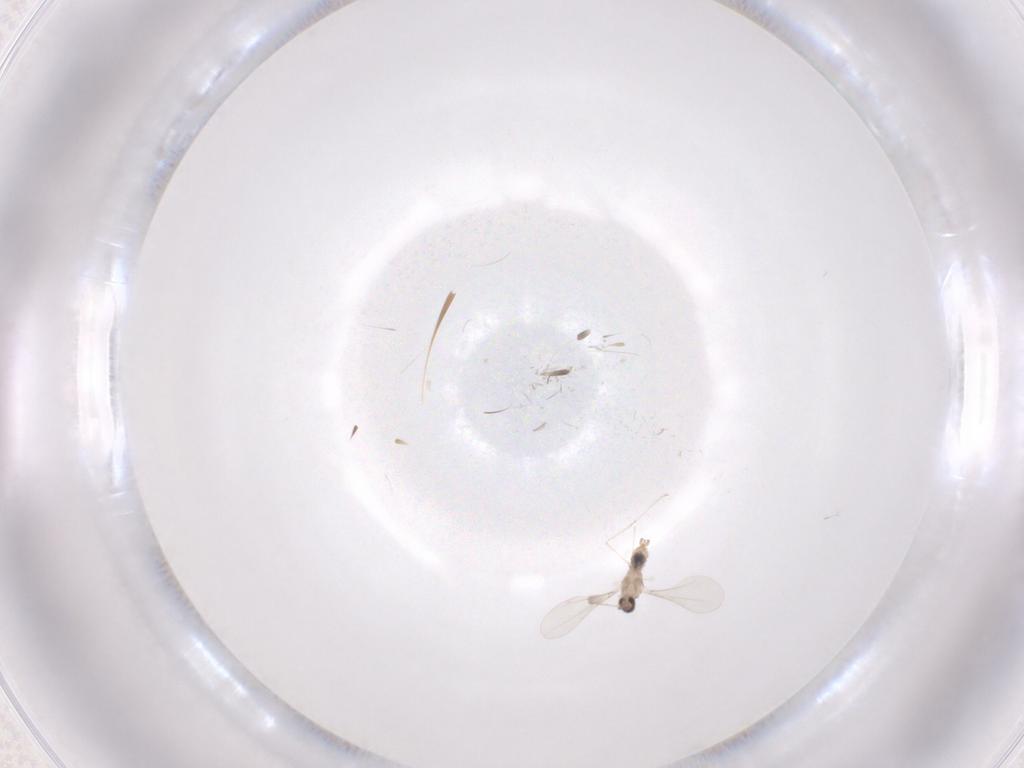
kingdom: Animalia
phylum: Arthropoda
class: Insecta
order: Diptera
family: Cecidomyiidae
